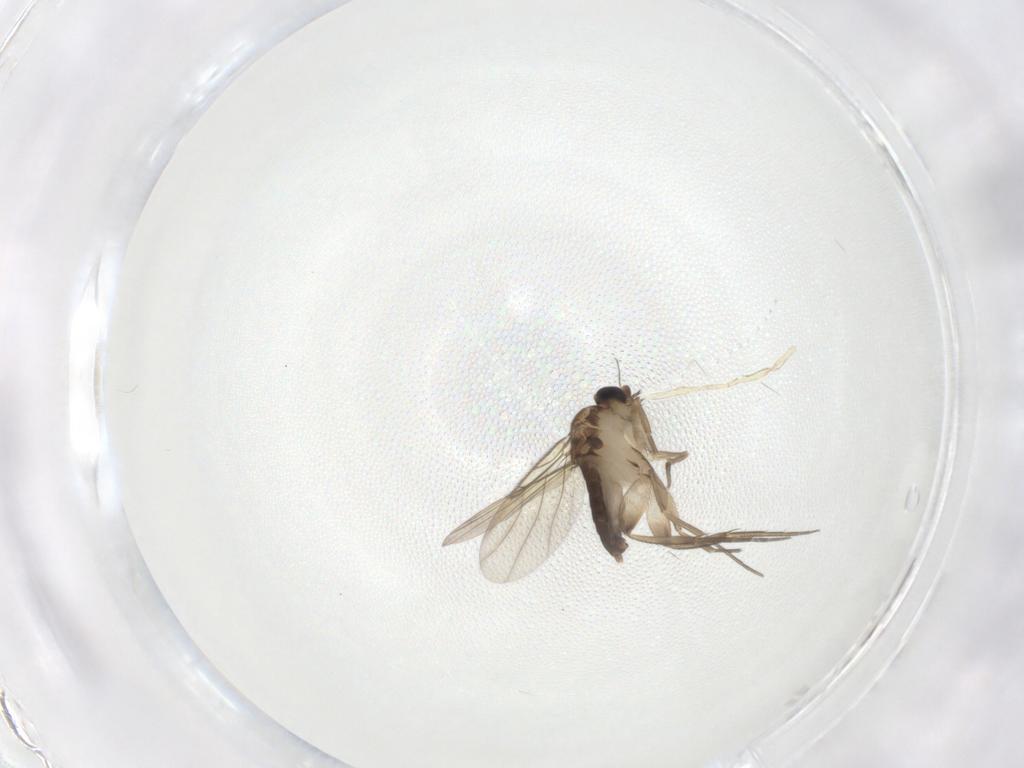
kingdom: Animalia
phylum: Arthropoda
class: Insecta
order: Diptera
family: Phoridae
